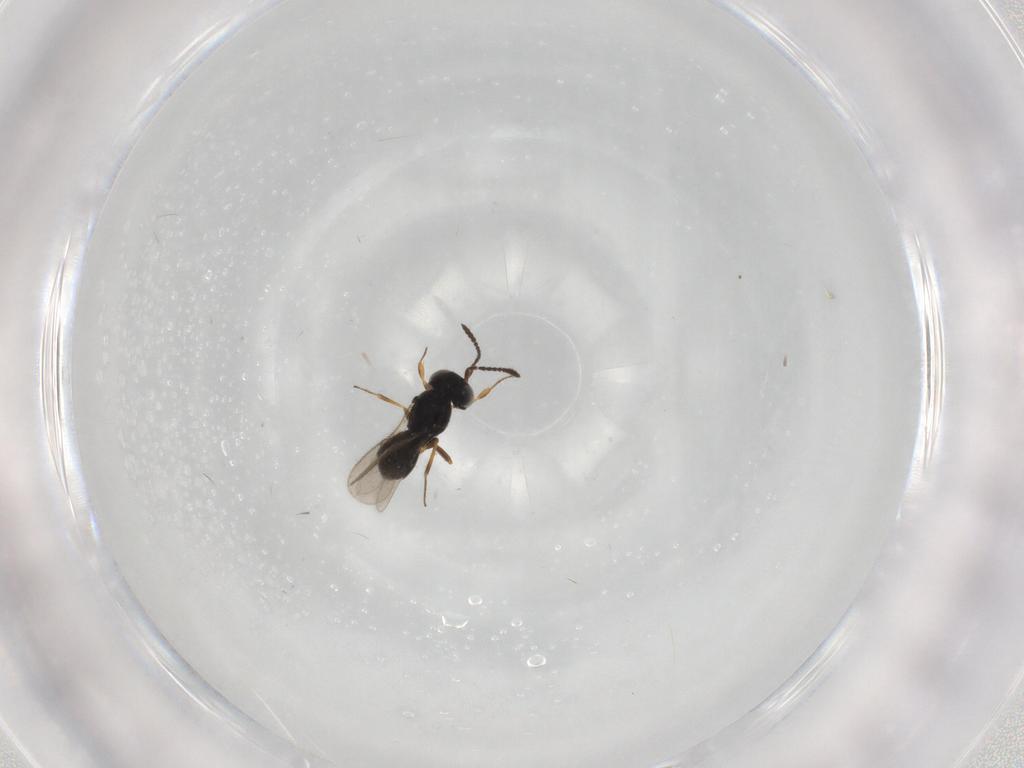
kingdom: Animalia
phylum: Arthropoda
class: Insecta
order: Hymenoptera
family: Scelionidae
